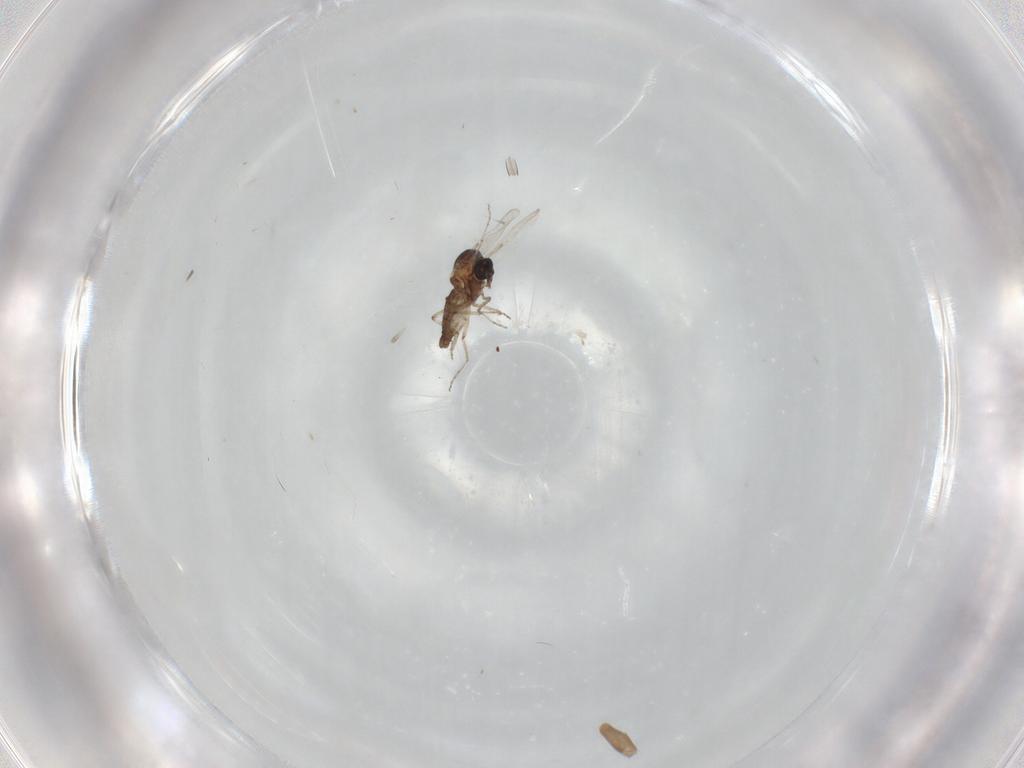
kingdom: Animalia
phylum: Arthropoda
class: Insecta
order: Diptera
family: Ceratopogonidae
